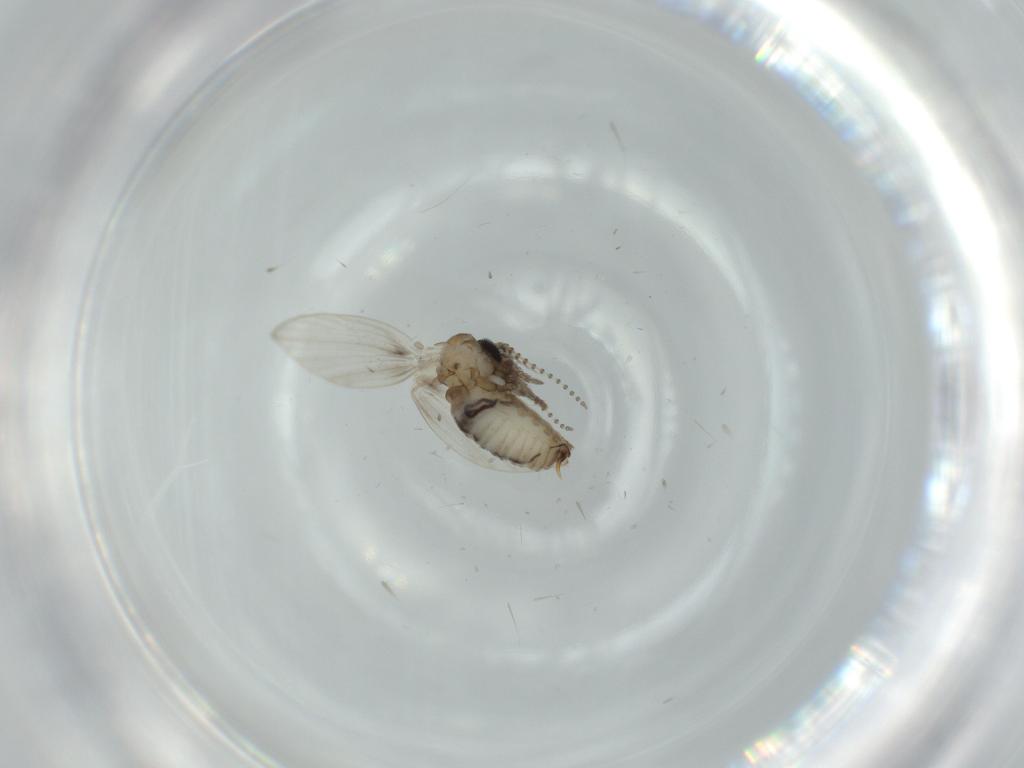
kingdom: Animalia
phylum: Arthropoda
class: Insecta
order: Diptera
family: Psychodidae
